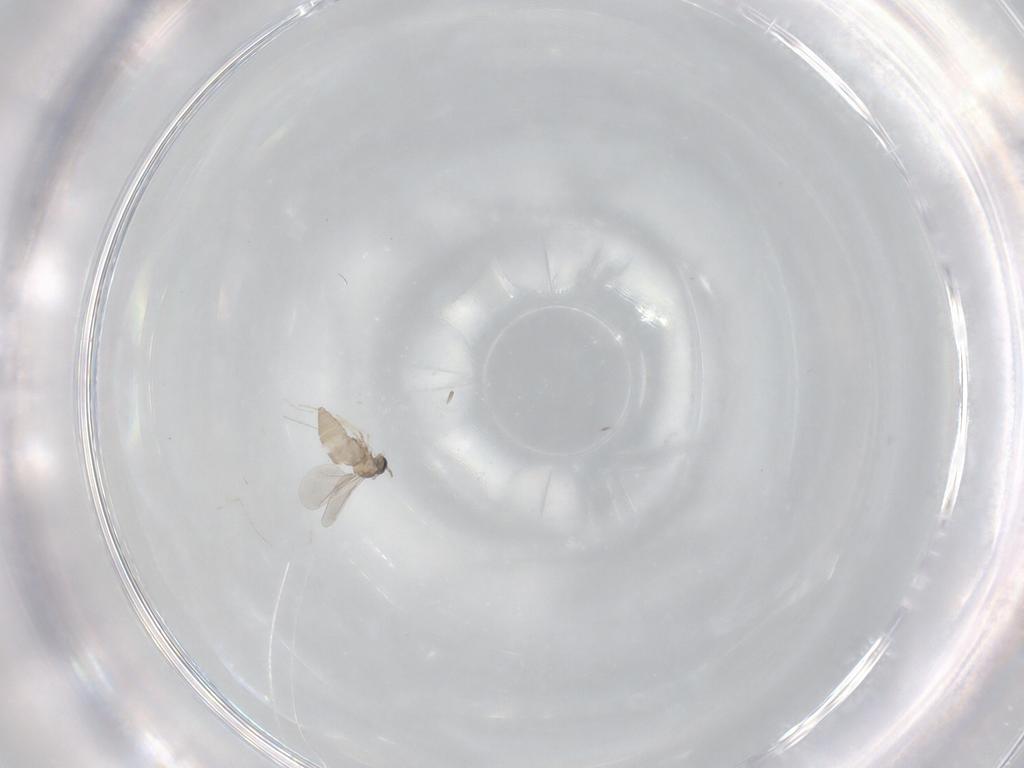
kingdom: Animalia
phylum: Arthropoda
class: Insecta
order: Diptera
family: Cecidomyiidae
